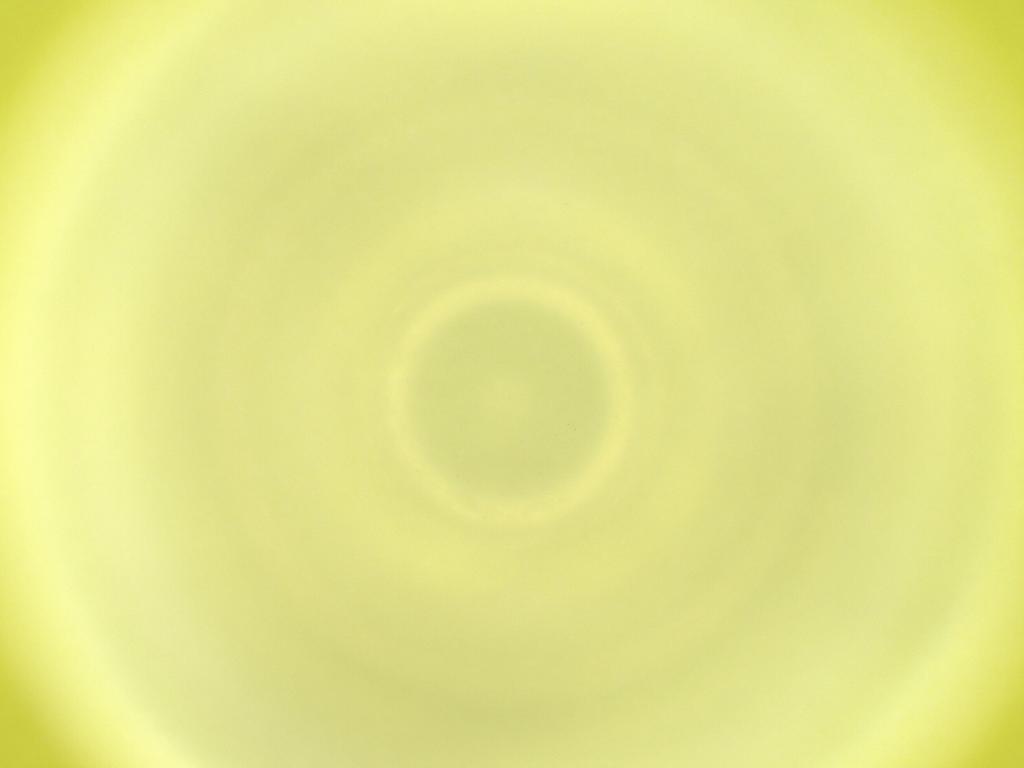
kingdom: Animalia
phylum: Arthropoda
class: Insecta
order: Diptera
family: Cecidomyiidae
